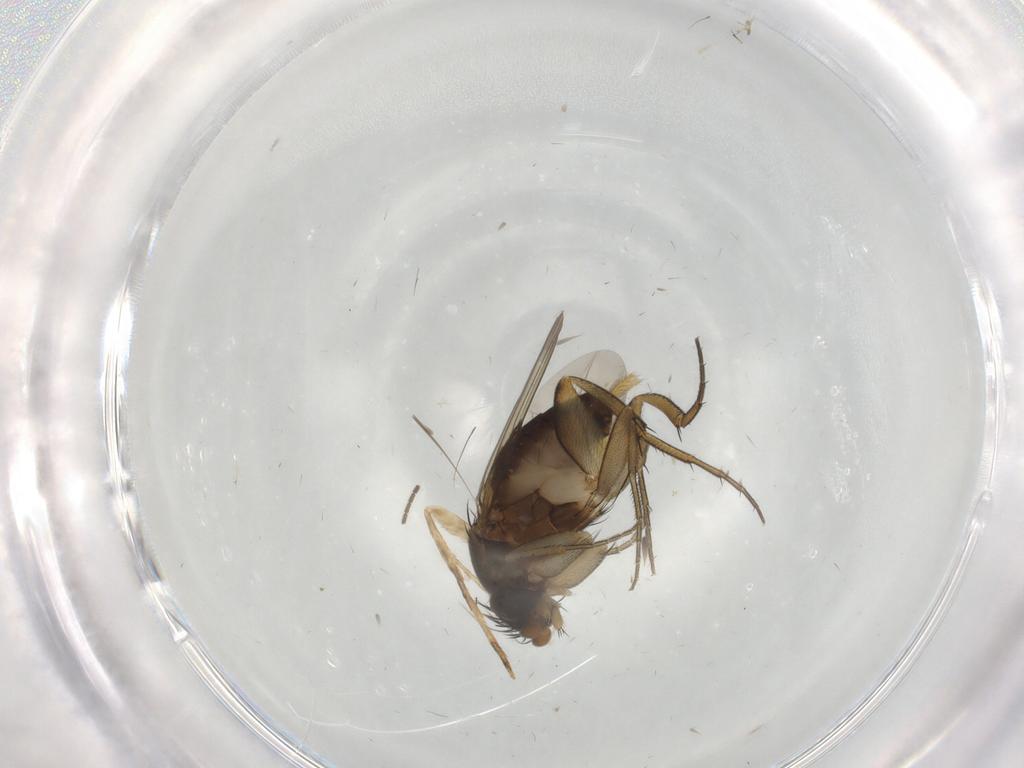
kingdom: Animalia
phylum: Arthropoda
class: Insecta
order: Diptera
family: Phoridae
